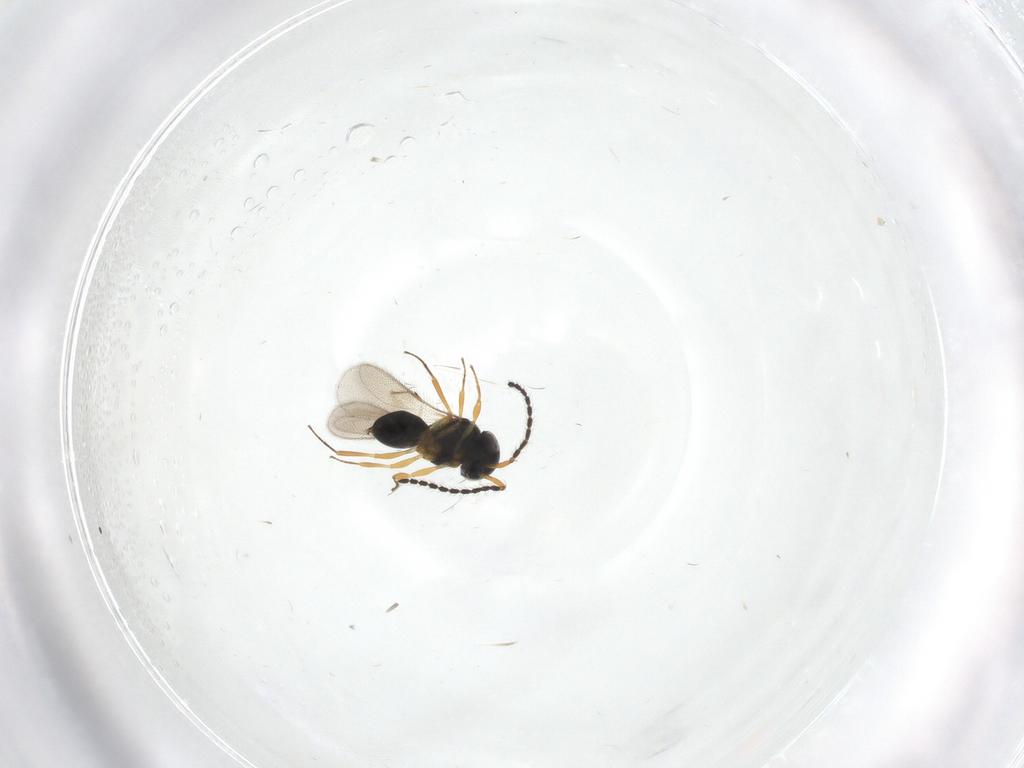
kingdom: Animalia
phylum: Arthropoda
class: Insecta
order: Hymenoptera
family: Scelionidae
